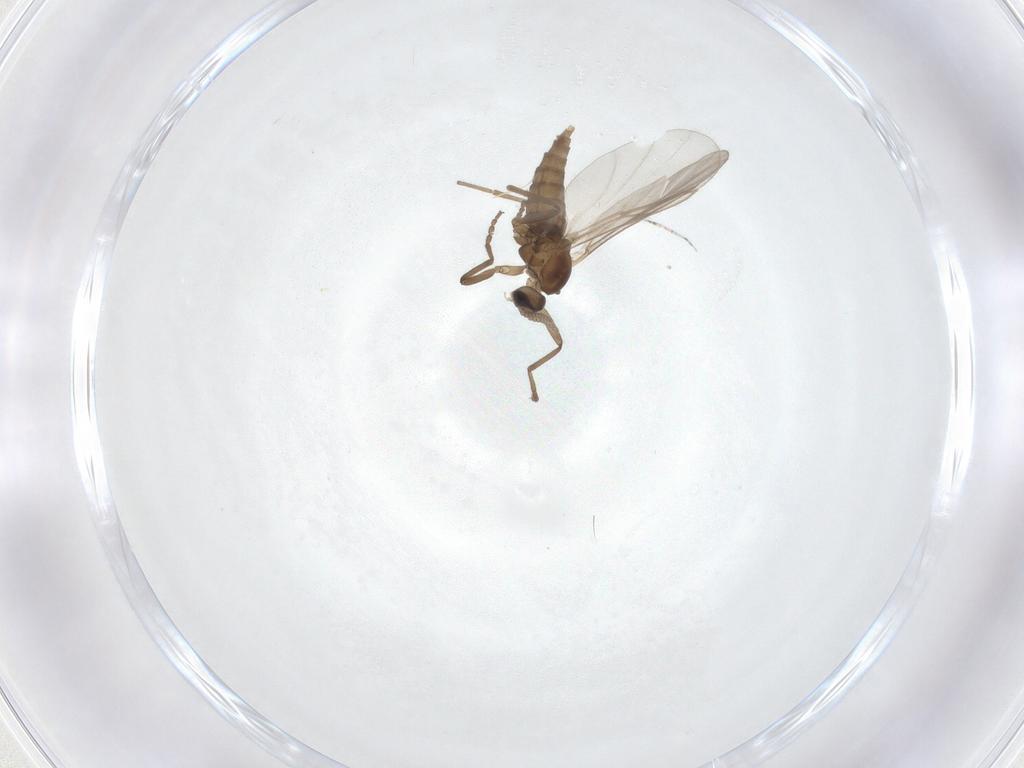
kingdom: Animalia
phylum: Arthropoda
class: Insecta
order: Diptera
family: Cecidomyiidae
